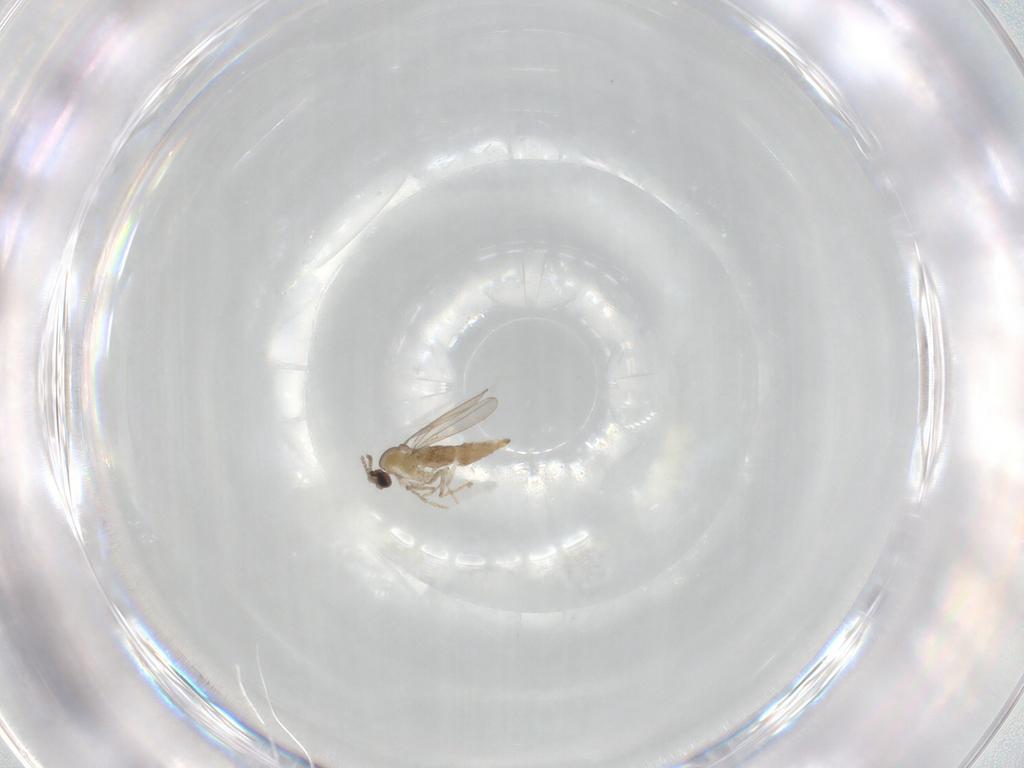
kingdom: Animalia
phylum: Arthropoda
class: Insecta
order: Diptera
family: Cecidomyiidae
